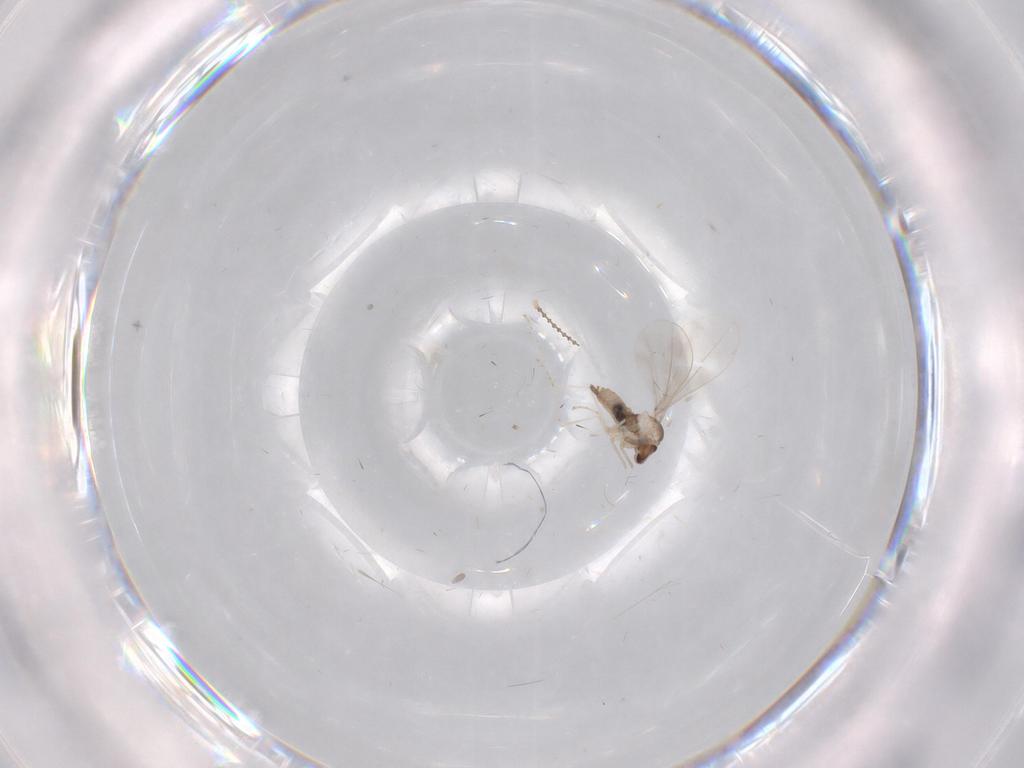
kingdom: Animalia
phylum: Arthropoda
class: Insecta
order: Diptera
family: Cecidomyiidae
